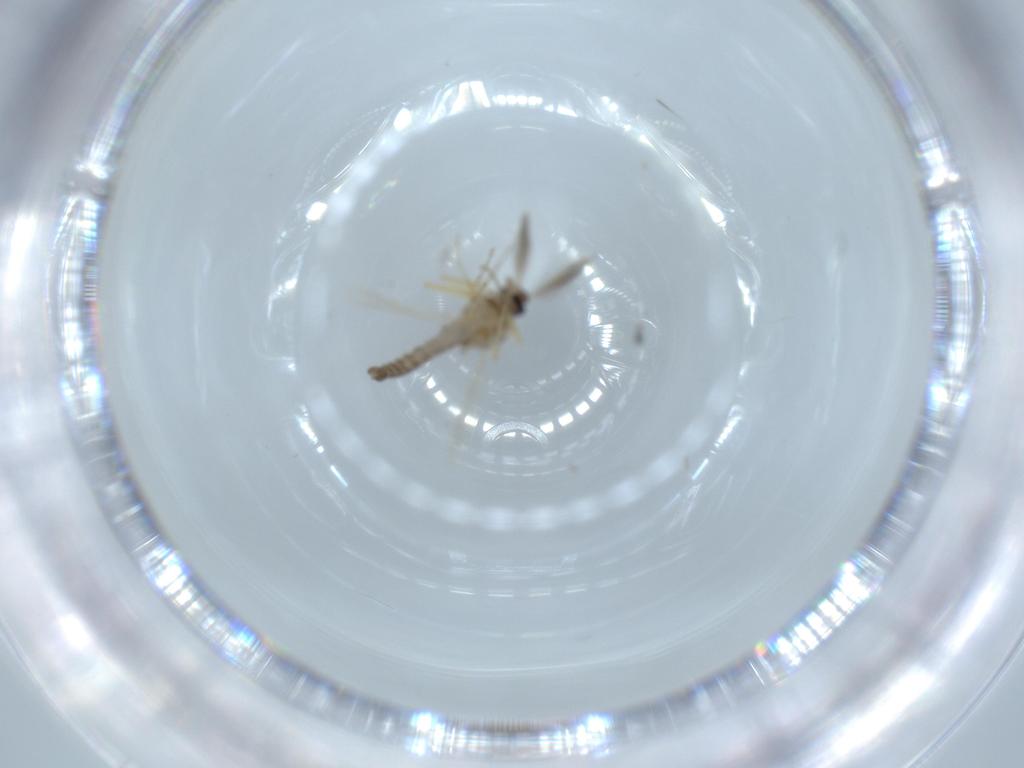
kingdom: Animalia
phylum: Arthropoda
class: Insecta
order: Diptera
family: Ceratopogonidae
